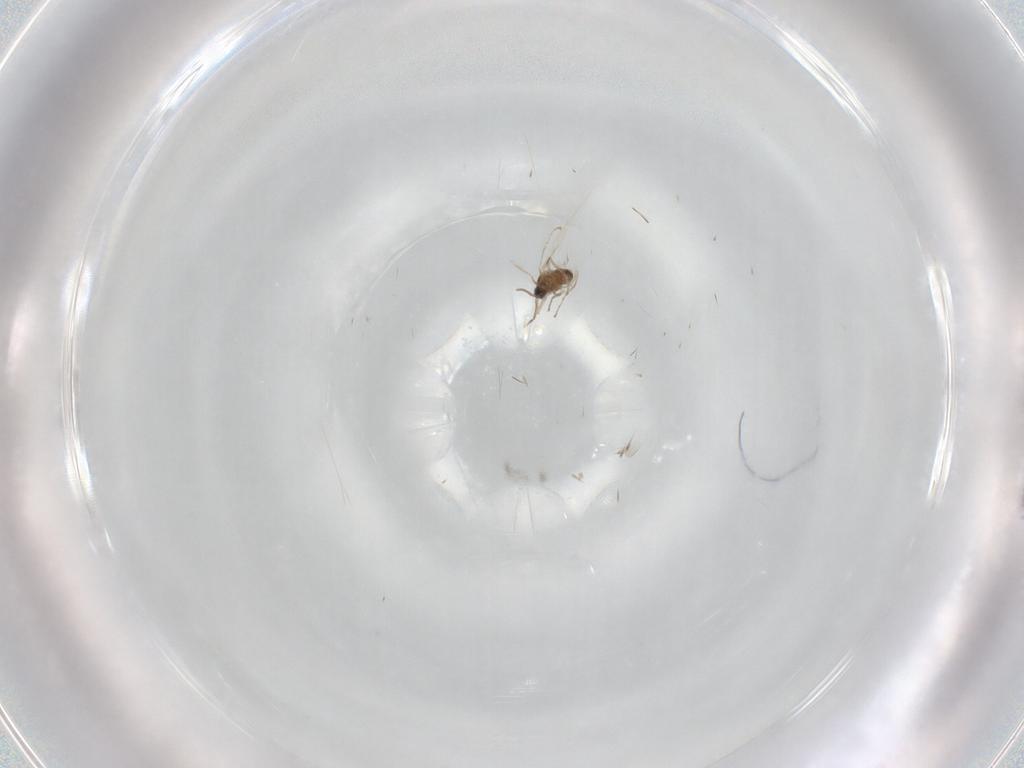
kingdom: Animalia
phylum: Arthropoda
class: Insecta
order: Diptera
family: Cecidomyiidae
